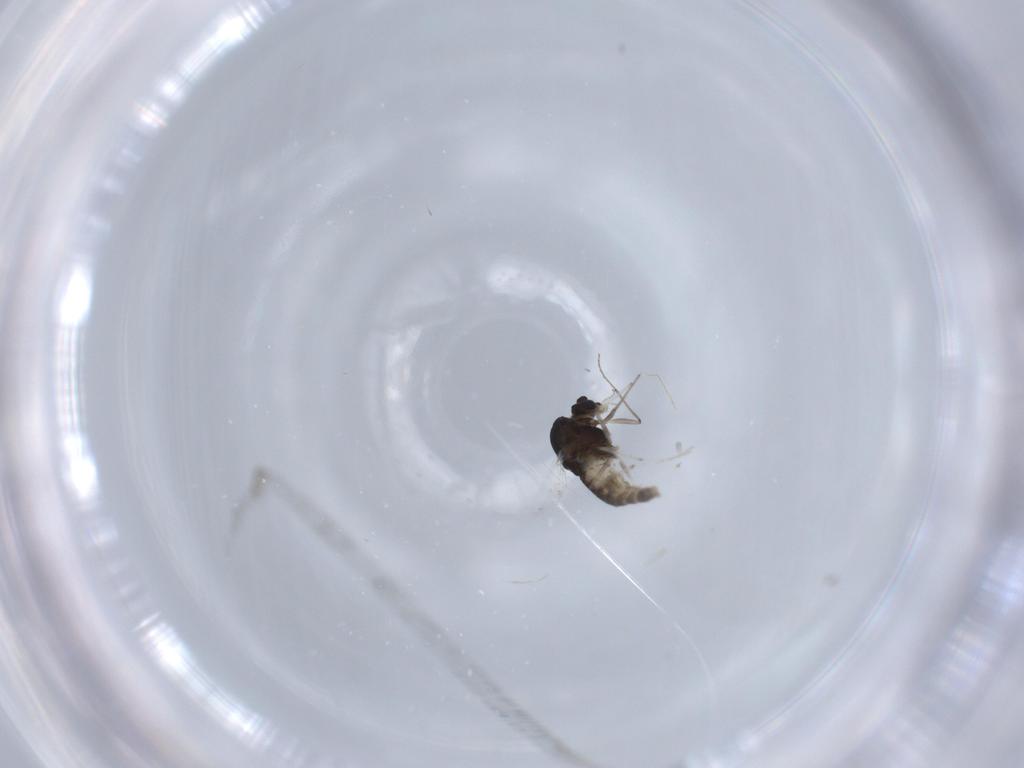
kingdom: Animalia
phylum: Arthropoda
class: Insecta
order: Diptera
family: Chironomidae
